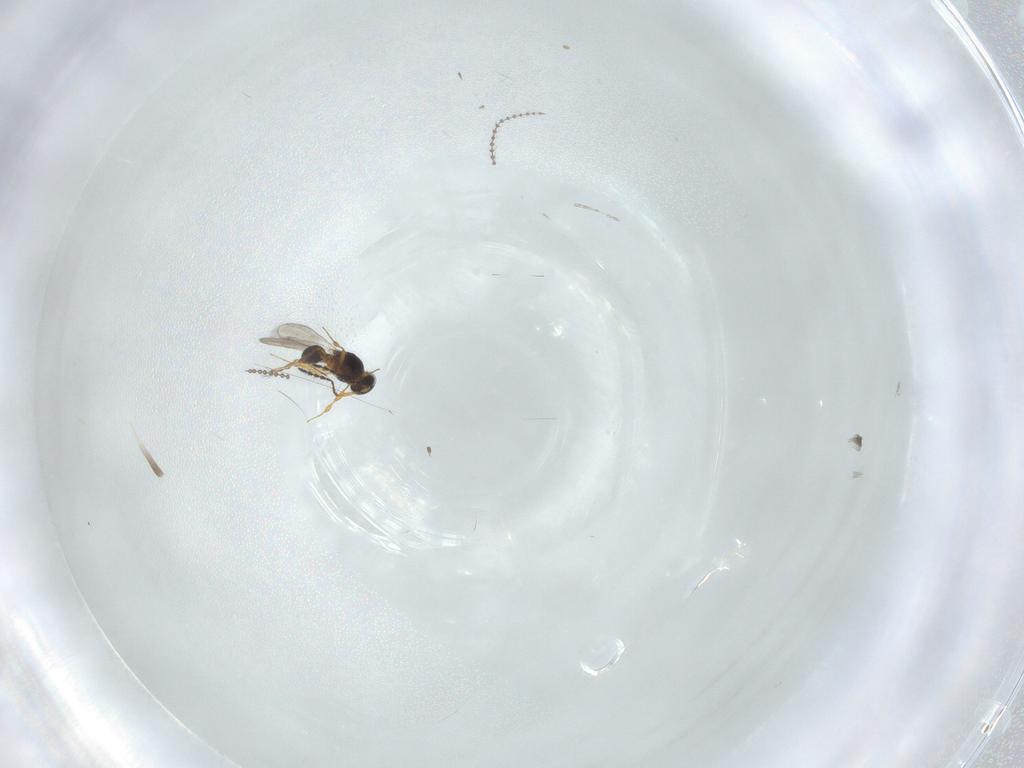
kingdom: Animalia
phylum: Arthropoda
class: Insecta
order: Hymenoptera
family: Platygastridae
